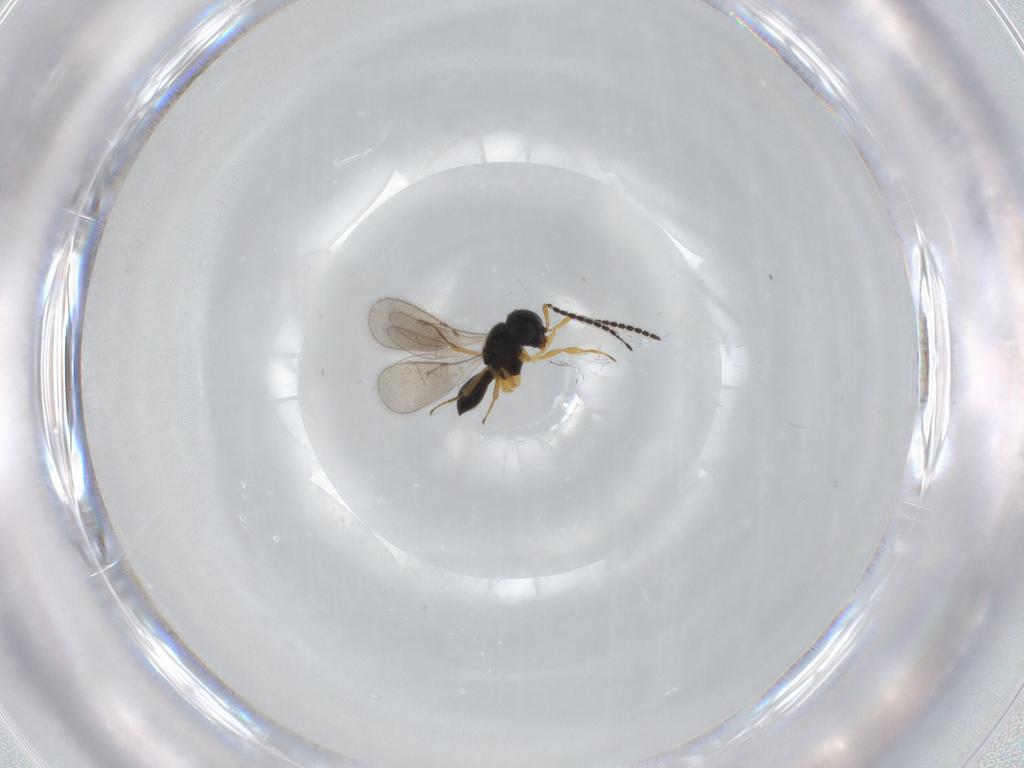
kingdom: Animalia
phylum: Arthropoda
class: Insecta
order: Hymenoptera
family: Scelionidae
